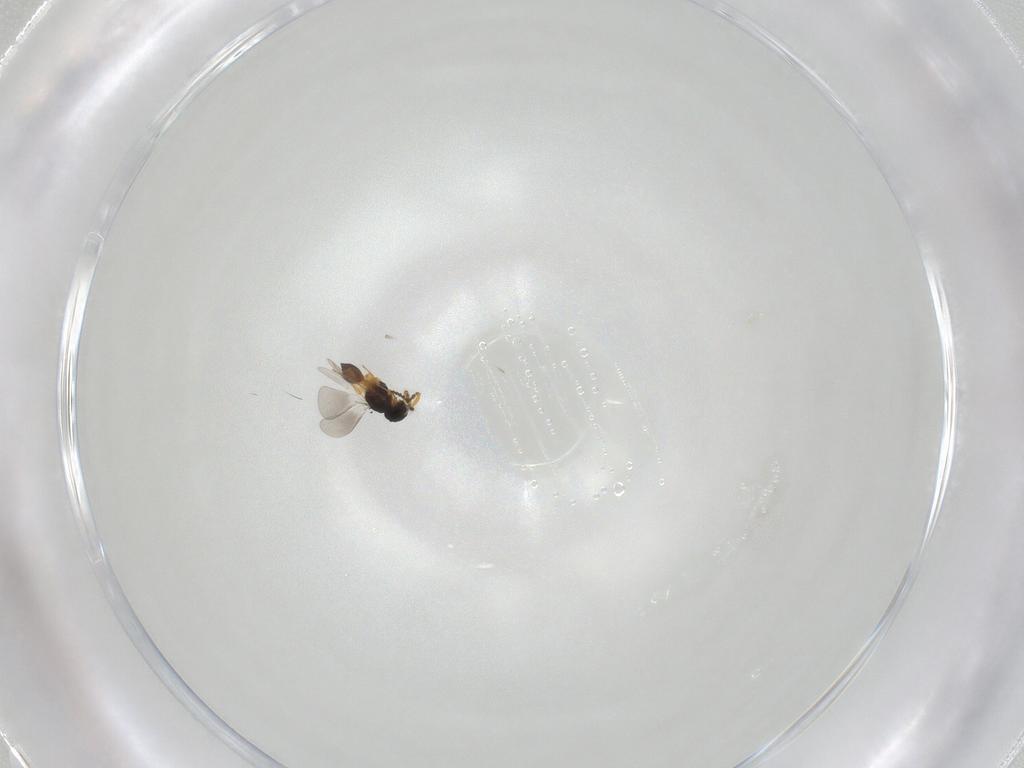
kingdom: Animalia
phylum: Arthropoda
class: Insecta
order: Hymenoptera
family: Platygastridae
